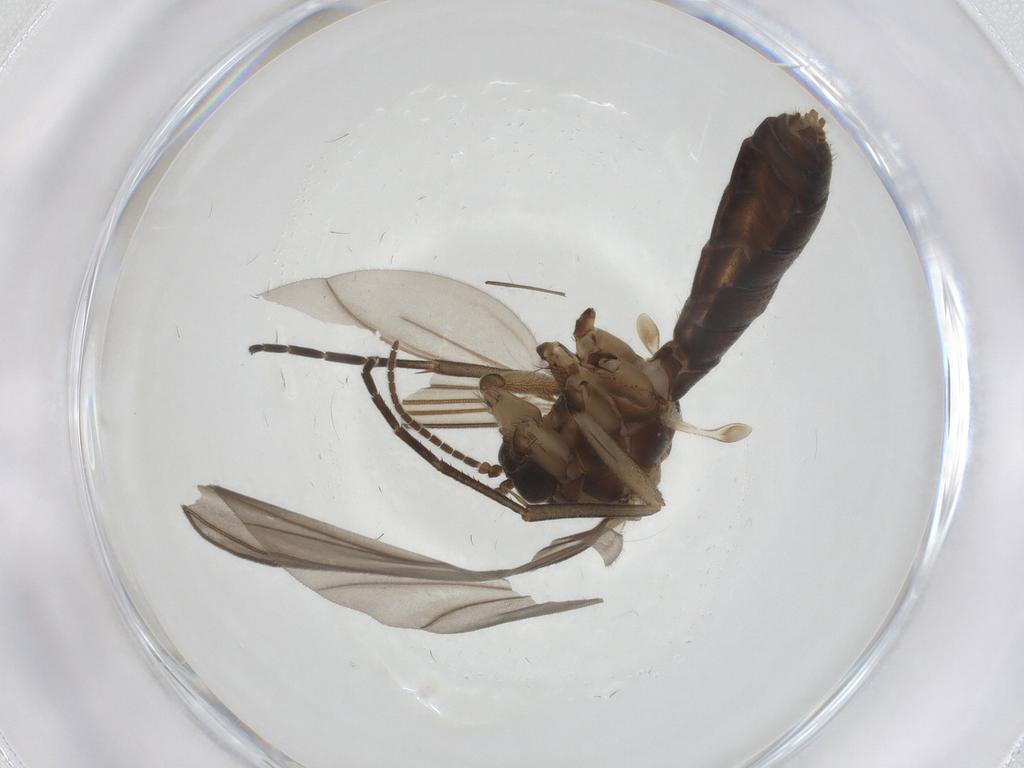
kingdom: Animalia
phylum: Arthropoda
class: Insecta
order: Diptera
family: Mycetophilidae
